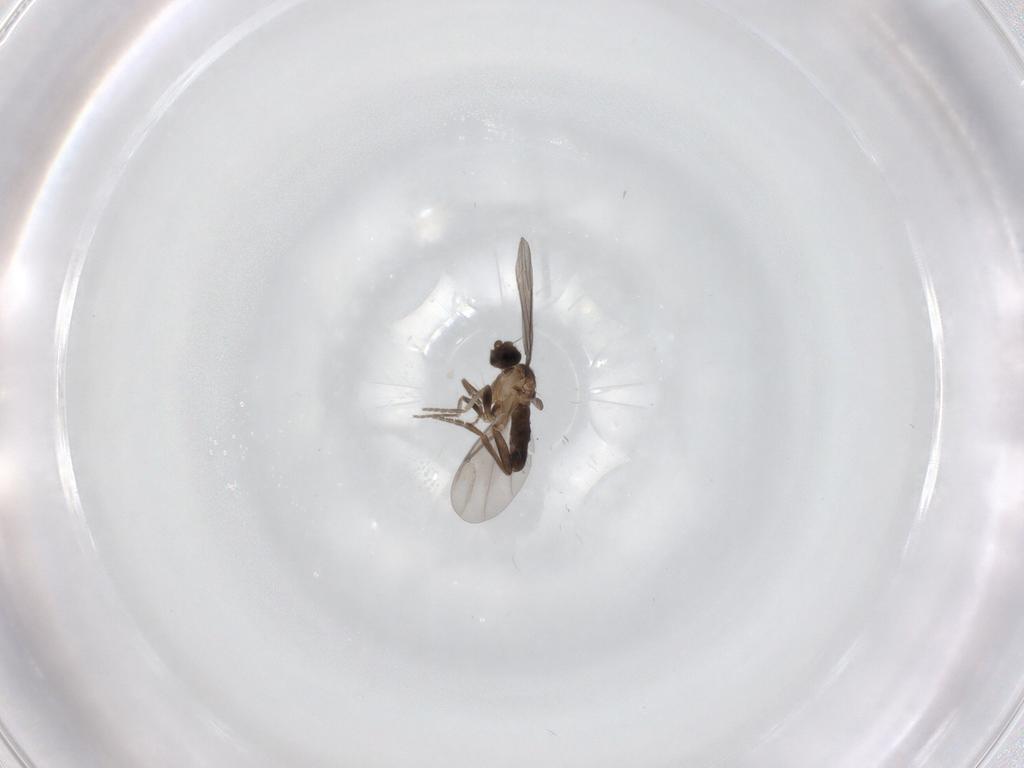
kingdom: Animalia
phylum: Arthropoda
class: Insecta
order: Diptera
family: Phoridae
